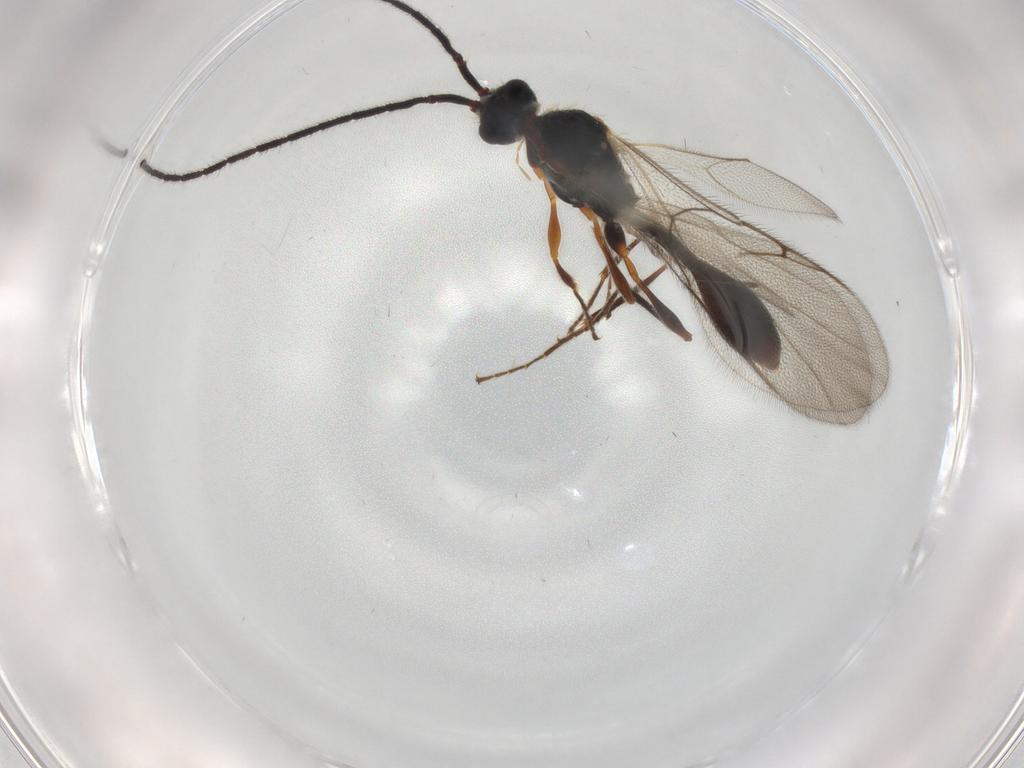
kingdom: Animalia
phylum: Arthropoda
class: Insecta
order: Hymenoptera
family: Diapriidae
